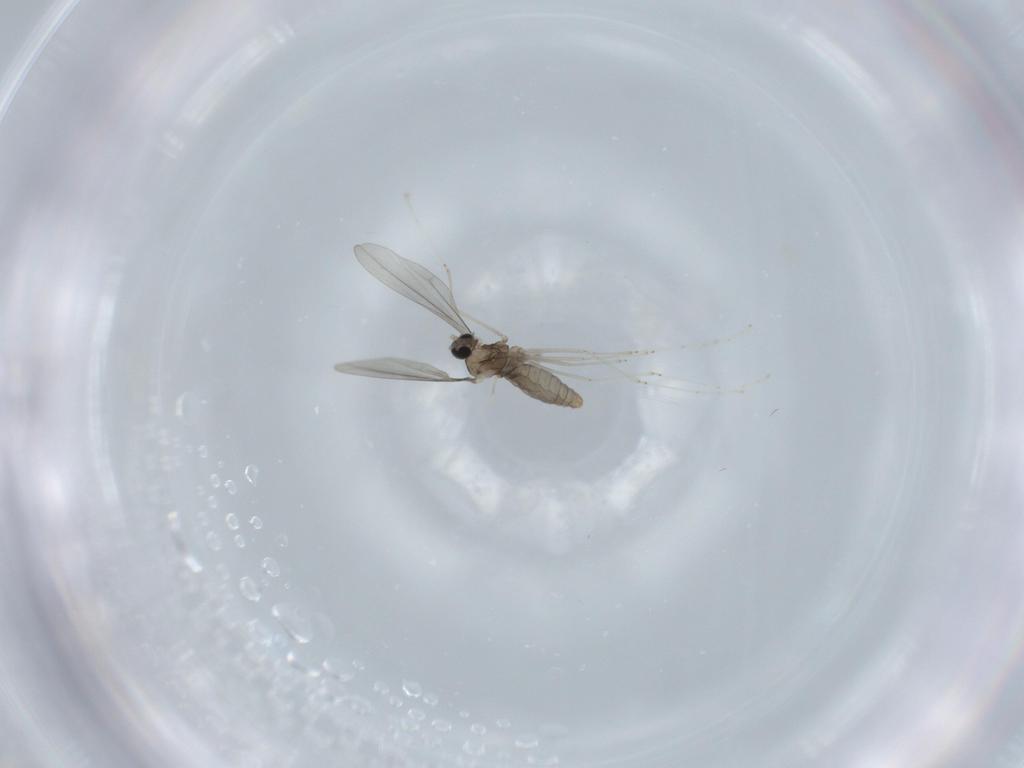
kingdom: Animalia
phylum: Arthropoda
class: Insecta
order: Diptera
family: Cecidomyiidae
